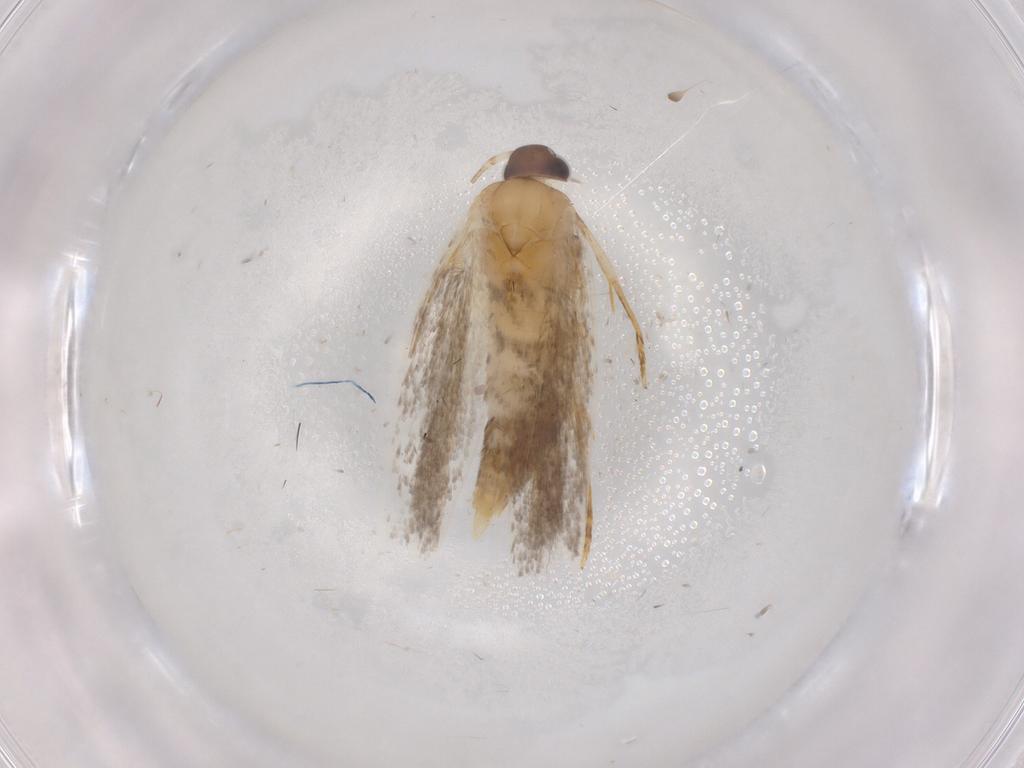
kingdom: Animalia
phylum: Arthropoda
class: Insecta
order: Lepidoptera
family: Autostichidae
